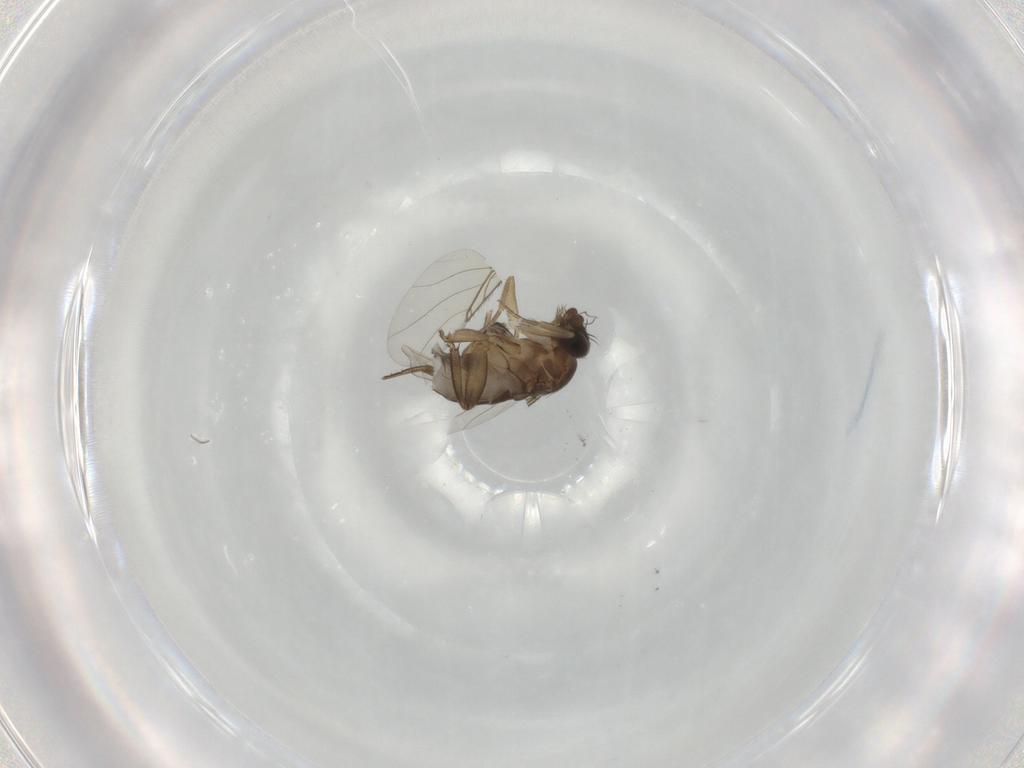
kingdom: Animalia
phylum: Arthropoda
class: Insecta
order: Diptera
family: Phoridae
